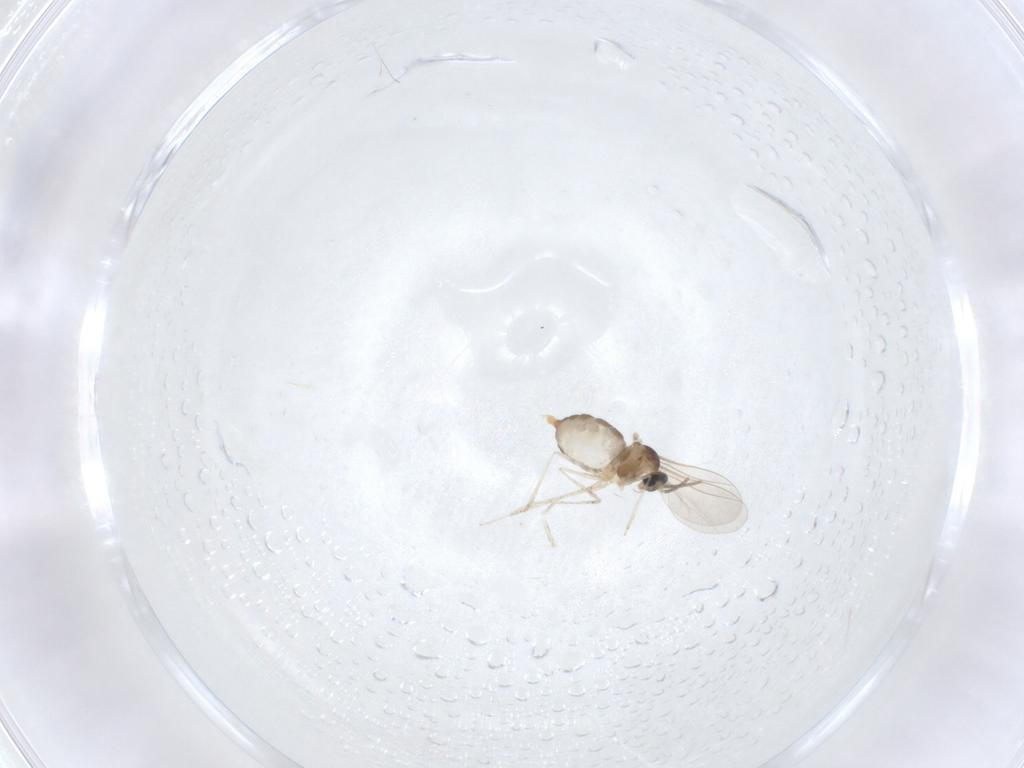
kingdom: Animalia
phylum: Arthropoda
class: Insecta
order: Diptera
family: Cecidomyiidae
